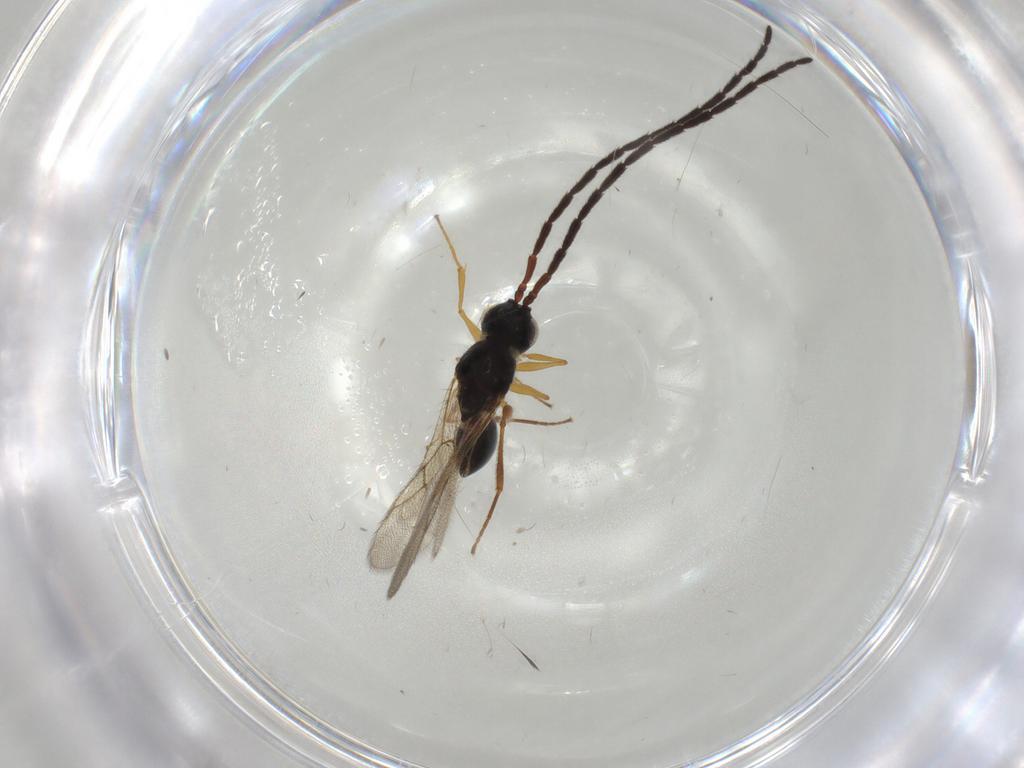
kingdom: Animalia
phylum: Arthropoda
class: Insecta
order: Hymenoptera
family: Figitidae
